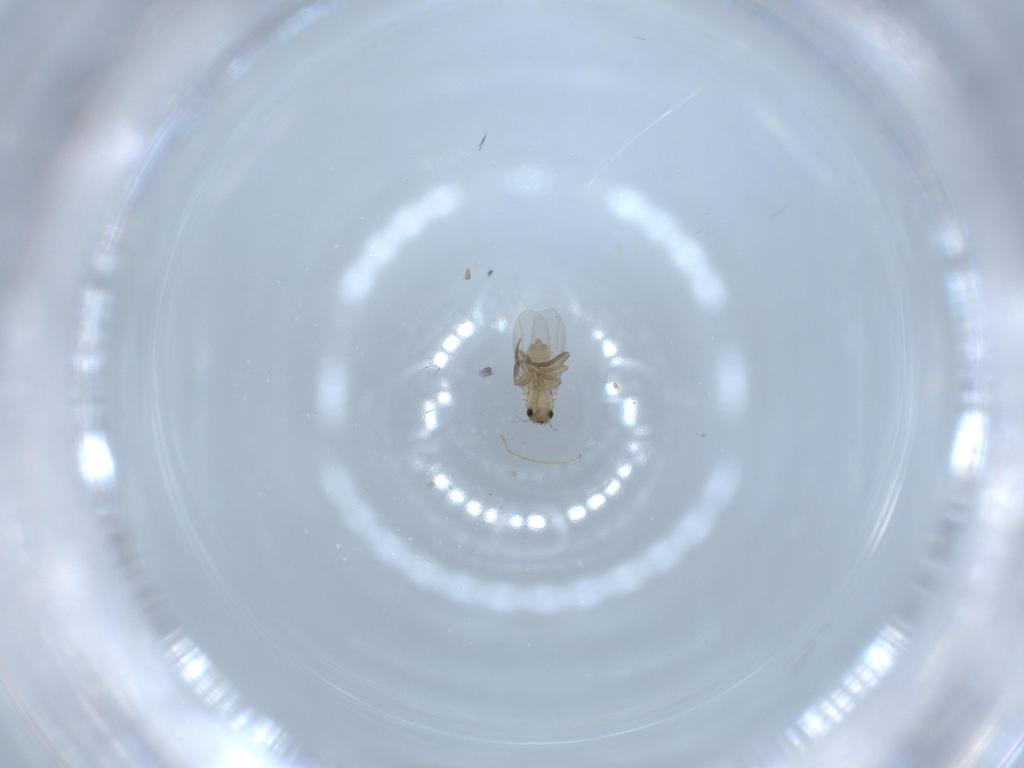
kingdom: Animalia
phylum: Arthropoda
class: Insecta
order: Diptera
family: Phoridae
